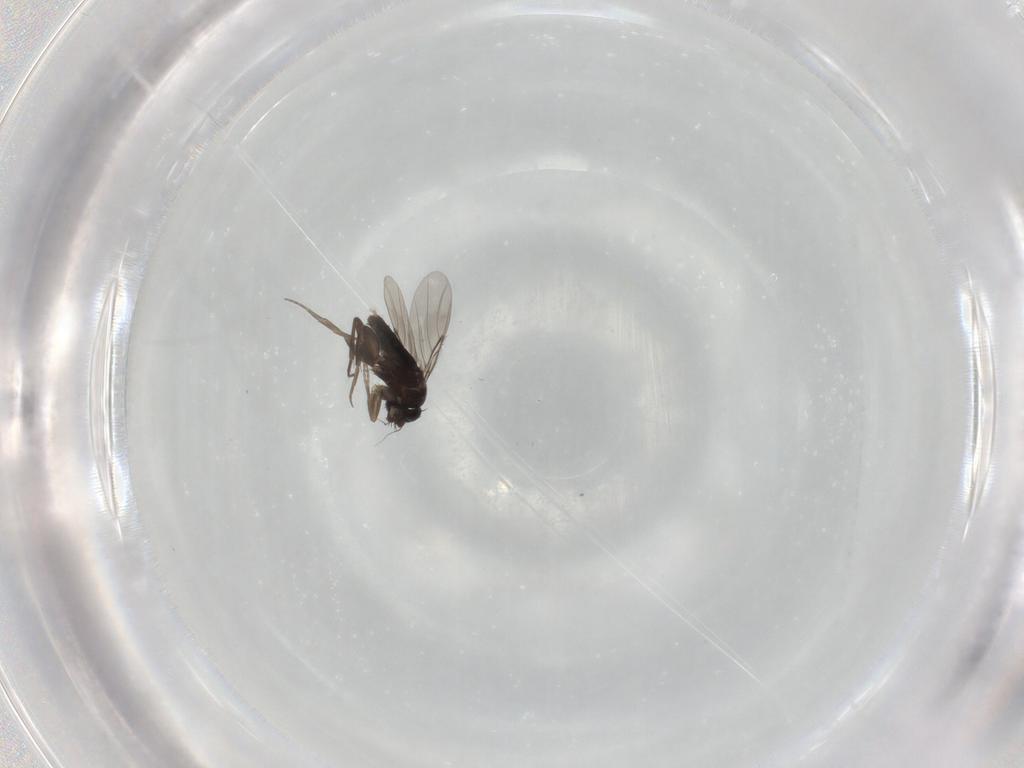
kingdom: Animalia
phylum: Arthropoda
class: Insecta
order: Diptera
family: Phoridae
